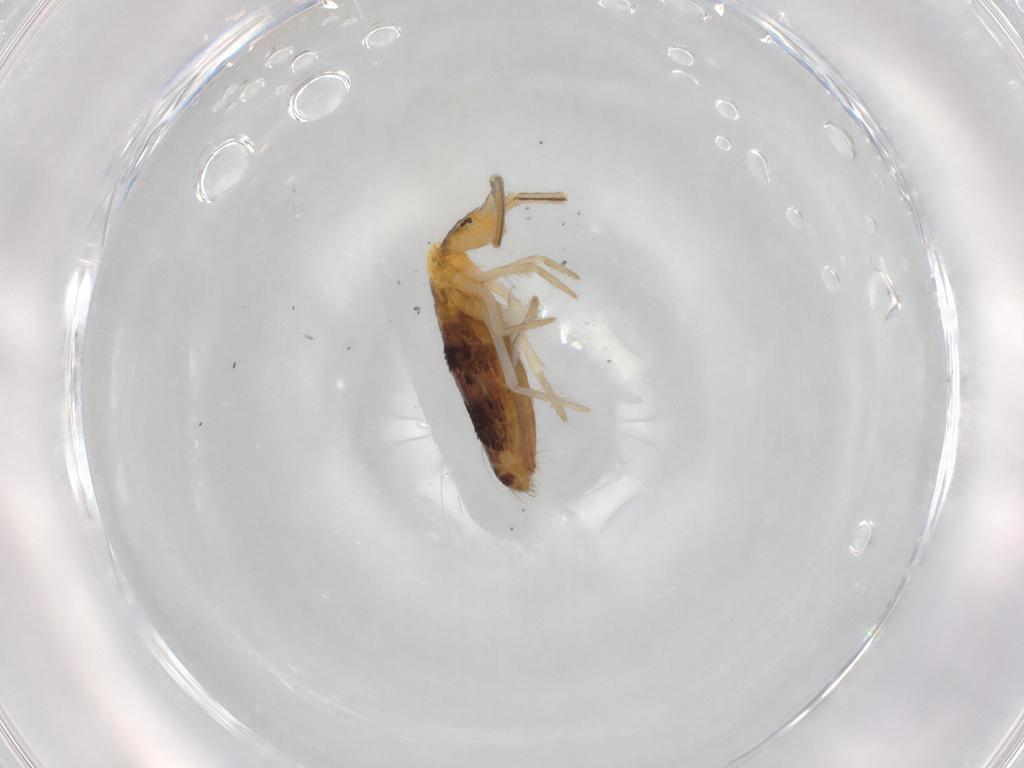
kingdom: Animalia
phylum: Arthropoda
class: Collembola
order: Entomobryomorpha
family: Entomobryidae
